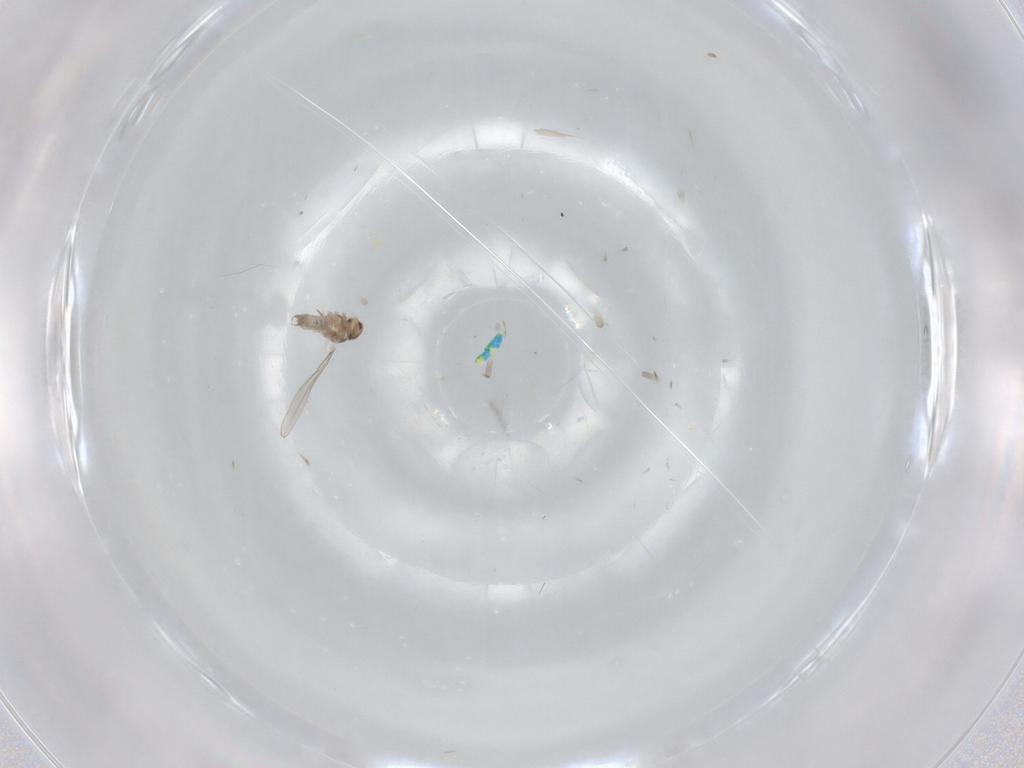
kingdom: Animalia
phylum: Arthropoda
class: Insecta
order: Diptera
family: Cecidomyiidae
